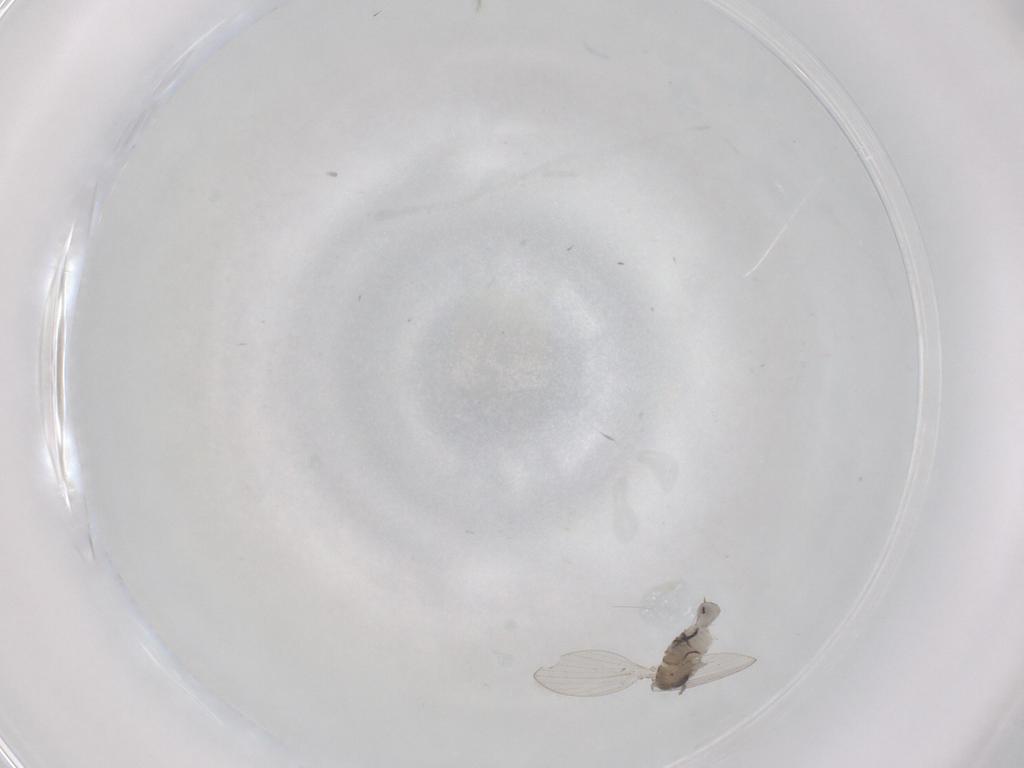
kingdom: Animalia
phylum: Arthropoda
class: Insecta
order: Diptera
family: Psychodidae
